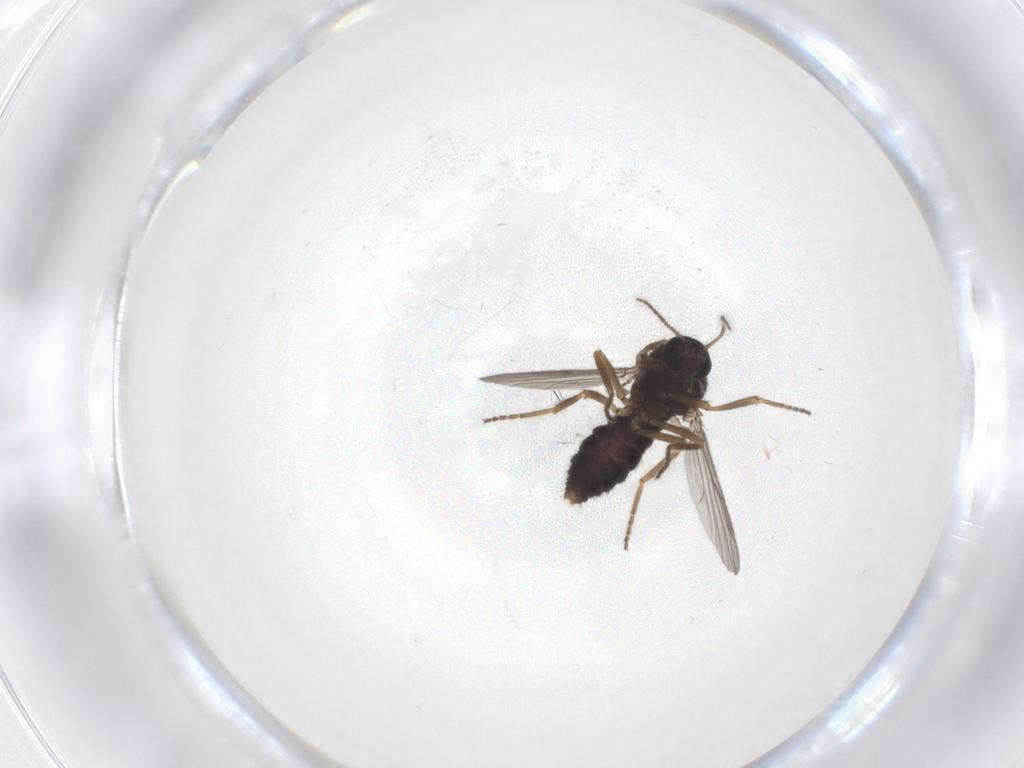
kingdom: Animalia
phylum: Arthropoda
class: Insecta
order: Diptera
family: Ceratopogonidae
